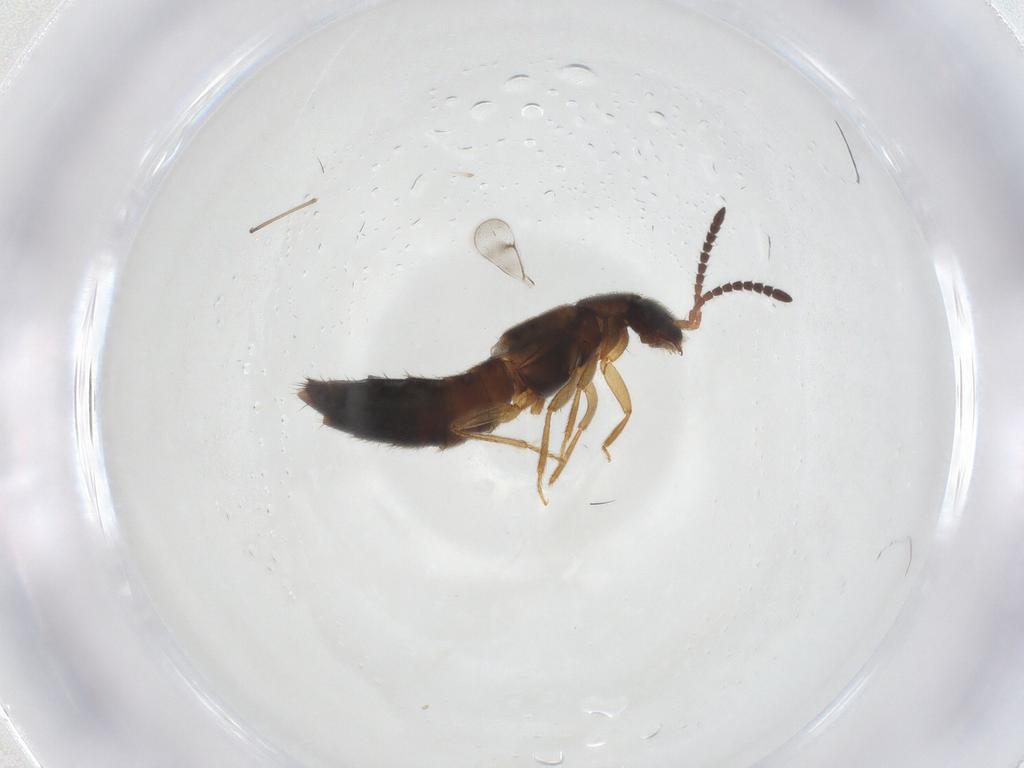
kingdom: Animalia
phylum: Arthropoda
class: Insecta
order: Coleoptera
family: Staphylinidae
